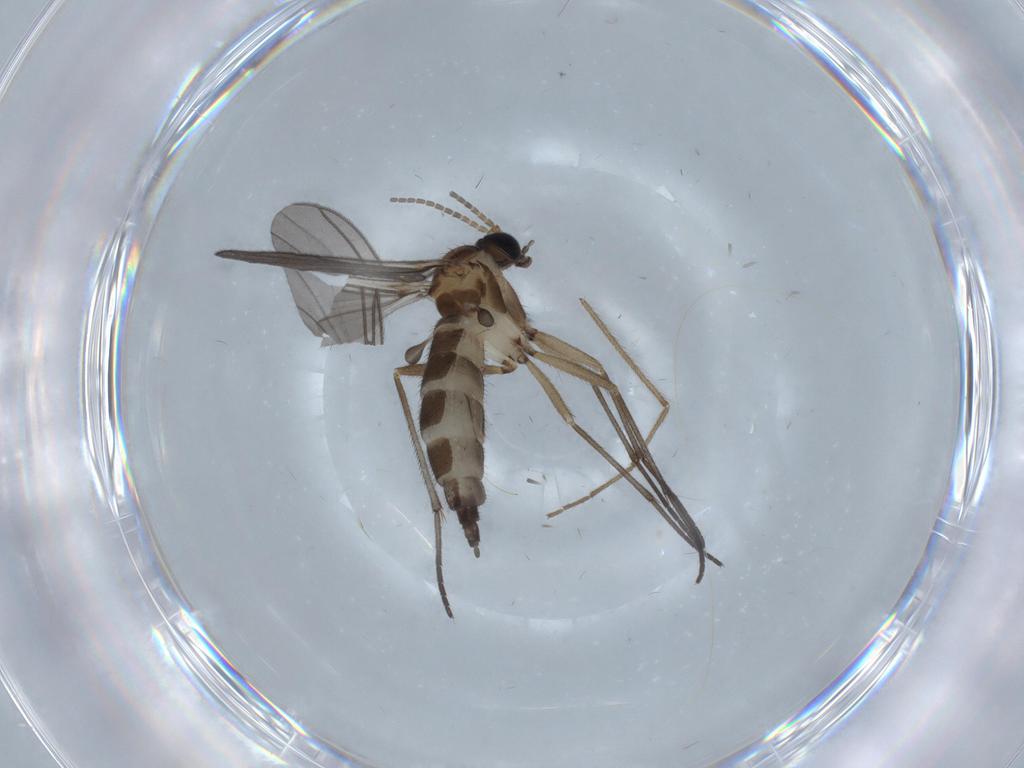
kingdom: Animalia
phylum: Arthropoda
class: Insecta
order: Diptera
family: Sciaridae
